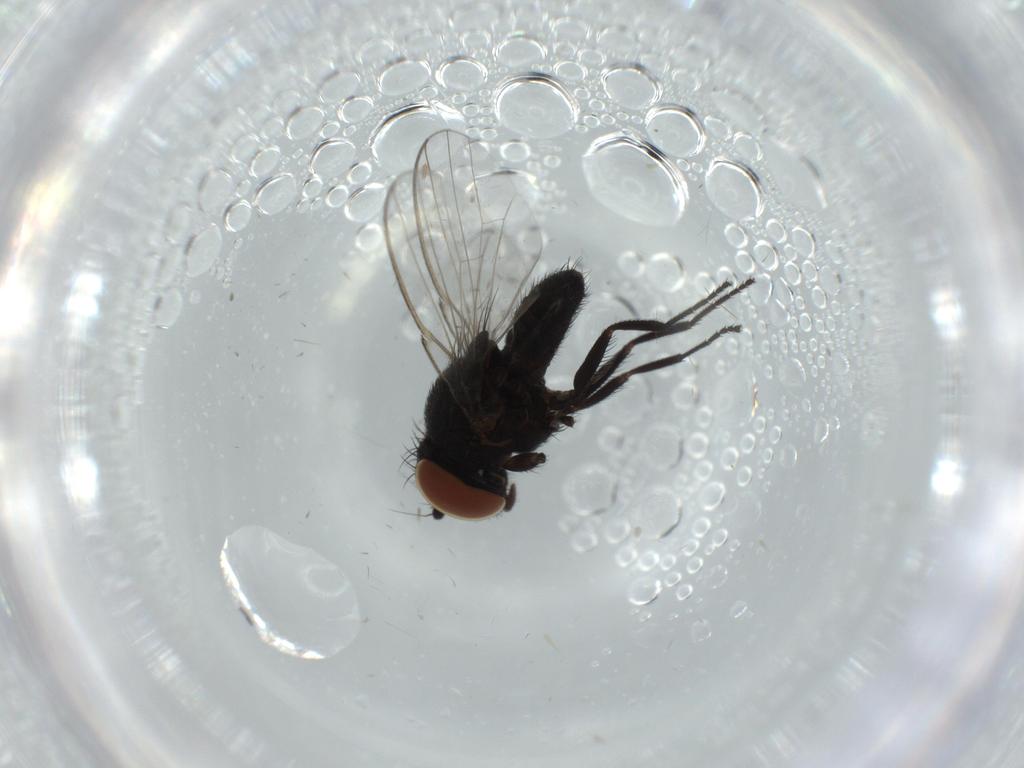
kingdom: Animalia
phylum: Arthropoda
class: Insecta
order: Diptera
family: Milichiidae
